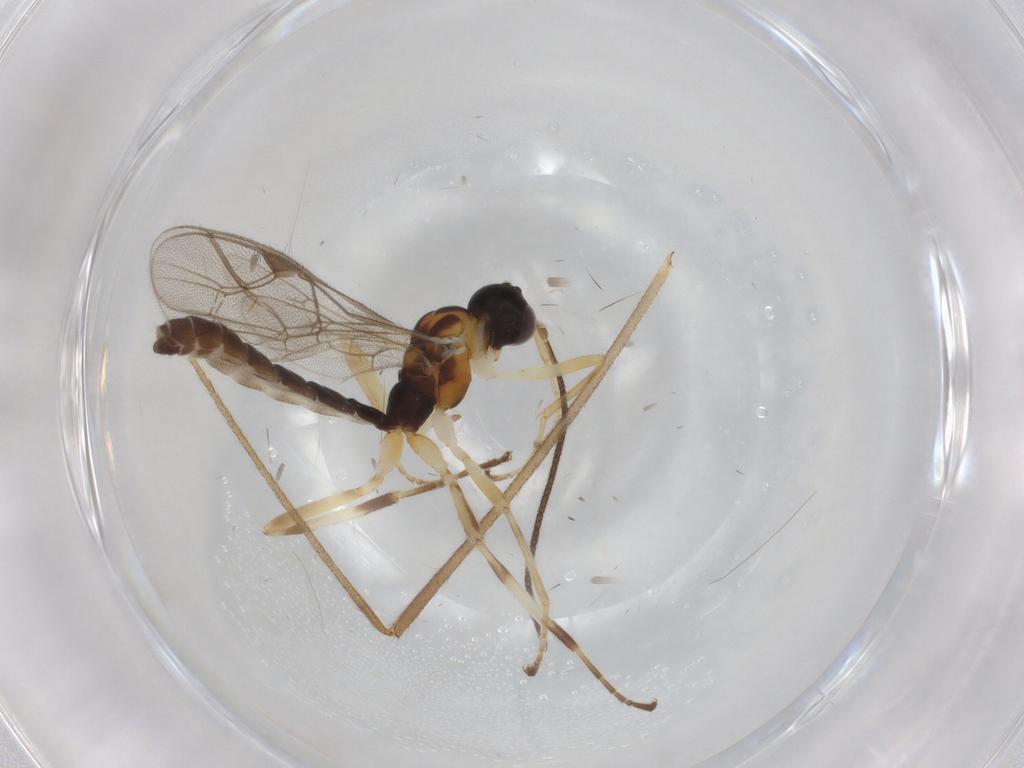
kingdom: Animalia
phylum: Arthropoda
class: Insecta
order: Hymenoptera
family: Ichneumonidae
